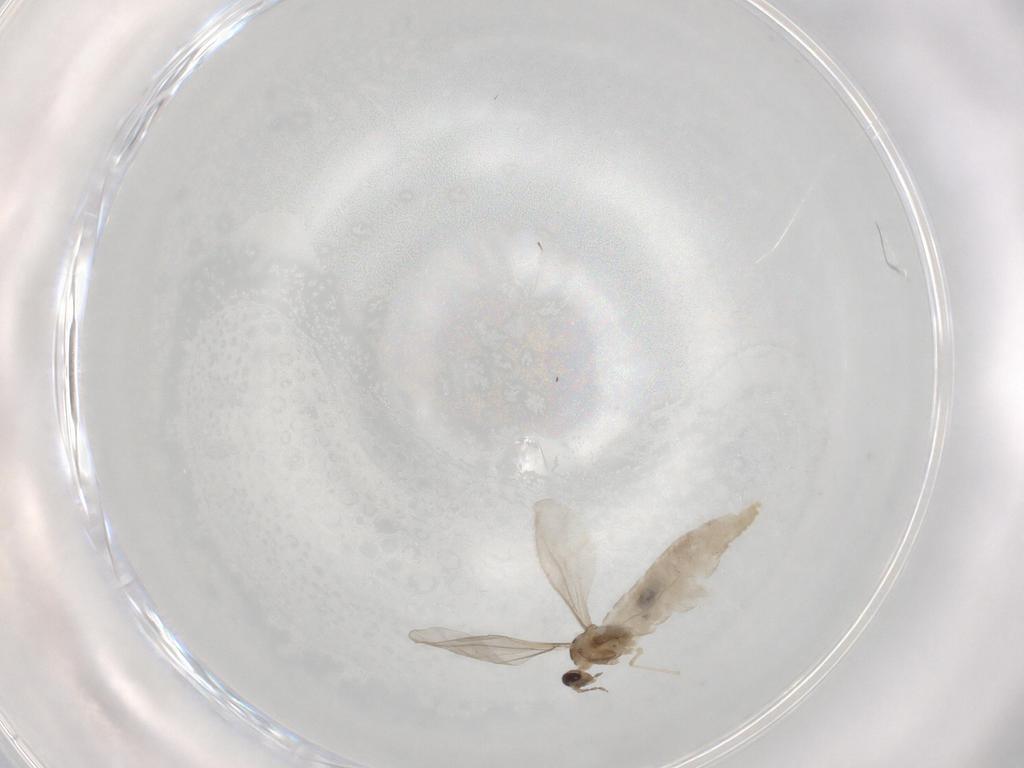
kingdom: Animalia
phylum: Arthropoda
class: Insecta
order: Diptera
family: Cecidomyiidae
